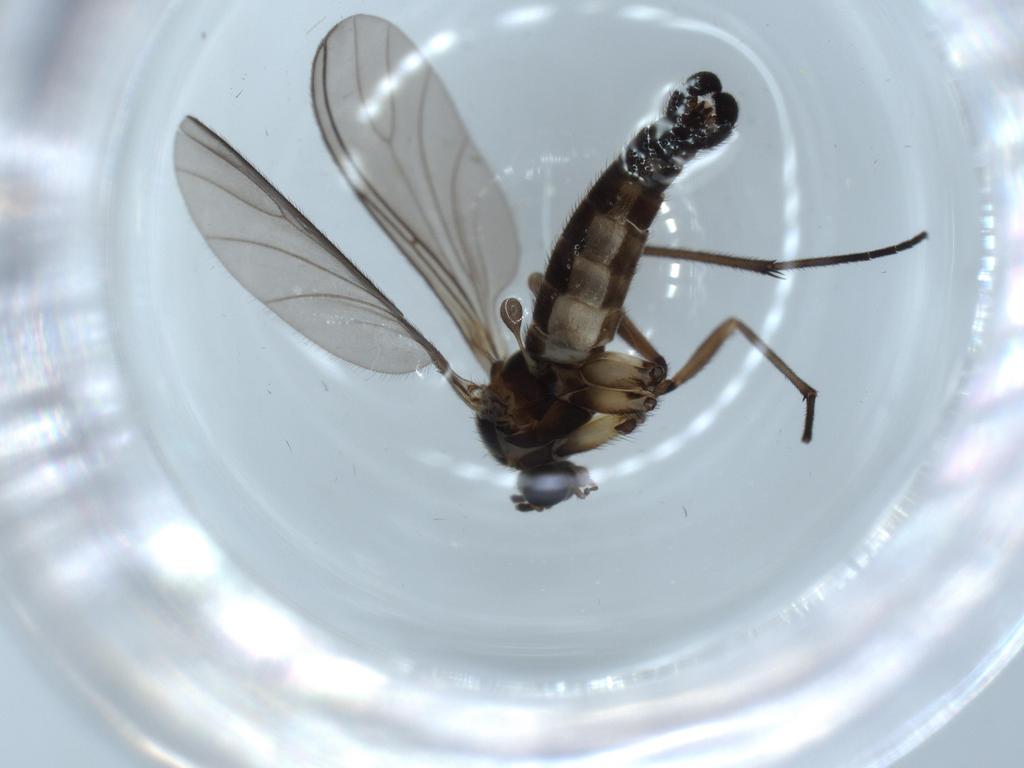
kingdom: Animalia
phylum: Arthropoda
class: Insecta
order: Diptera
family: Sciaridae
